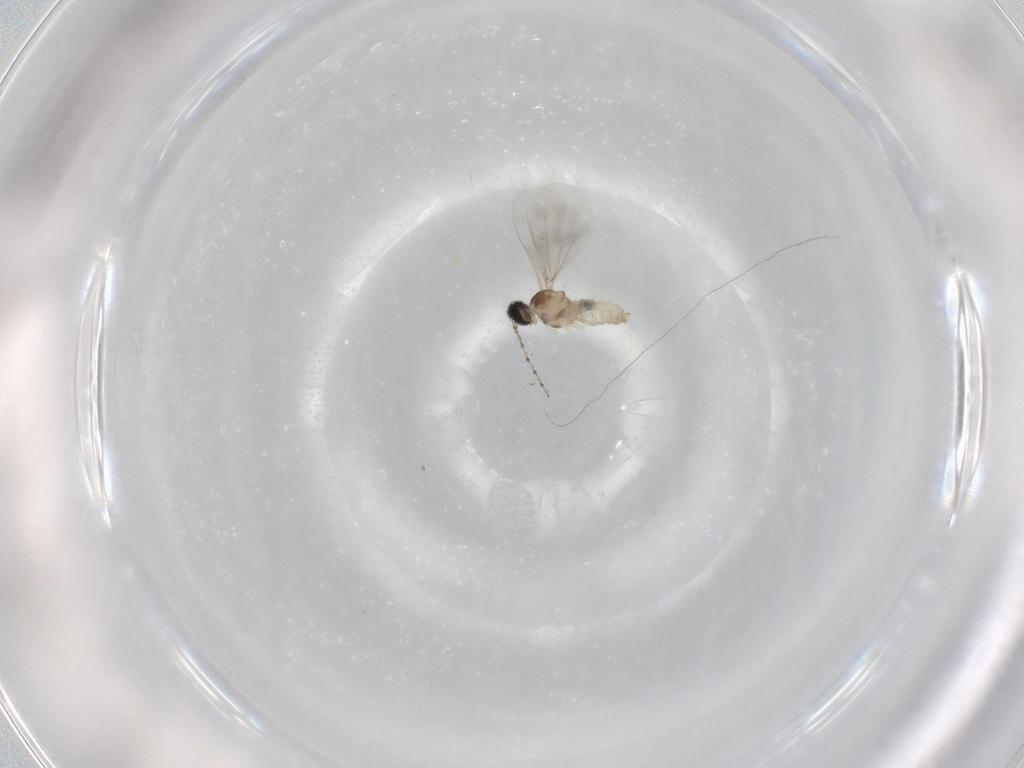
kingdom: Animalia
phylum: Arthropoda
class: Insecta
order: Diptera
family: Cecidomyiidae
